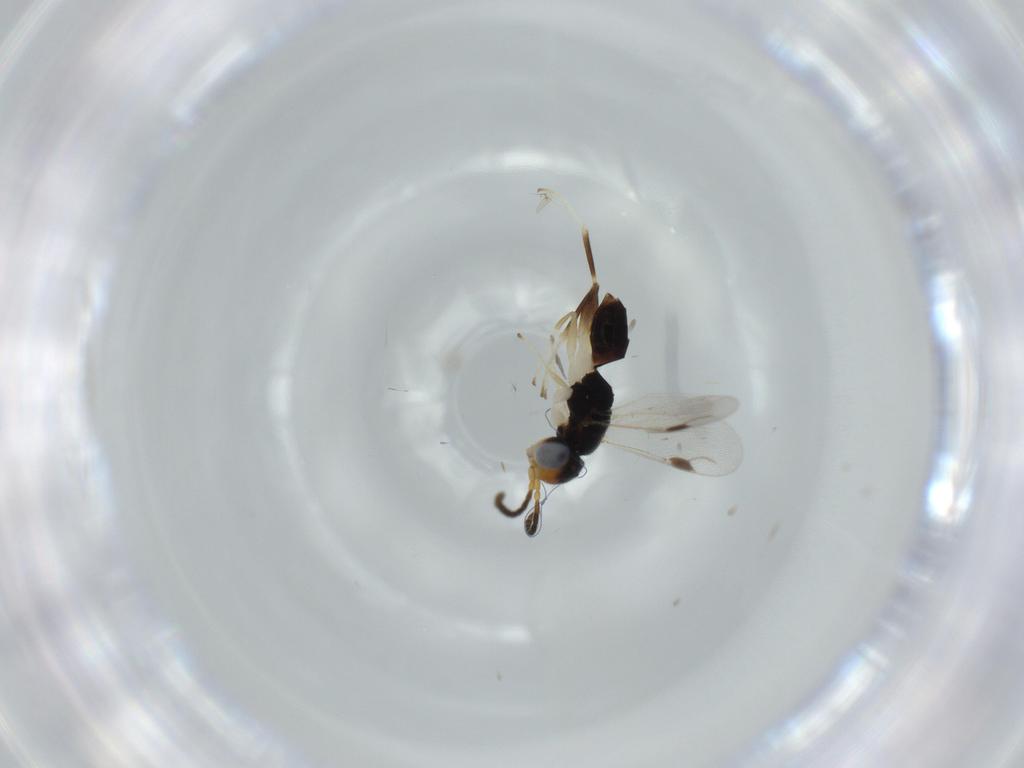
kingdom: Animalia
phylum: Arthropoda
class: Insecta
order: Hymenoptera
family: Dryinidae
